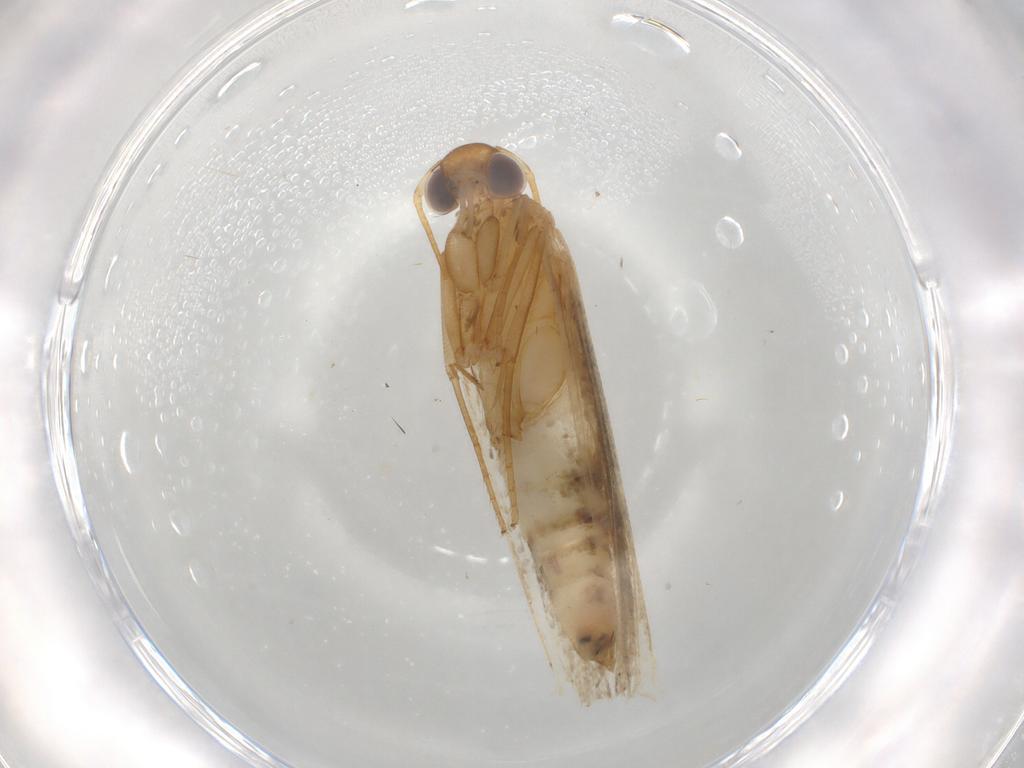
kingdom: Animalia
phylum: Arthropoda
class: Insecta
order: Lepidoptera
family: Gelechiidae
